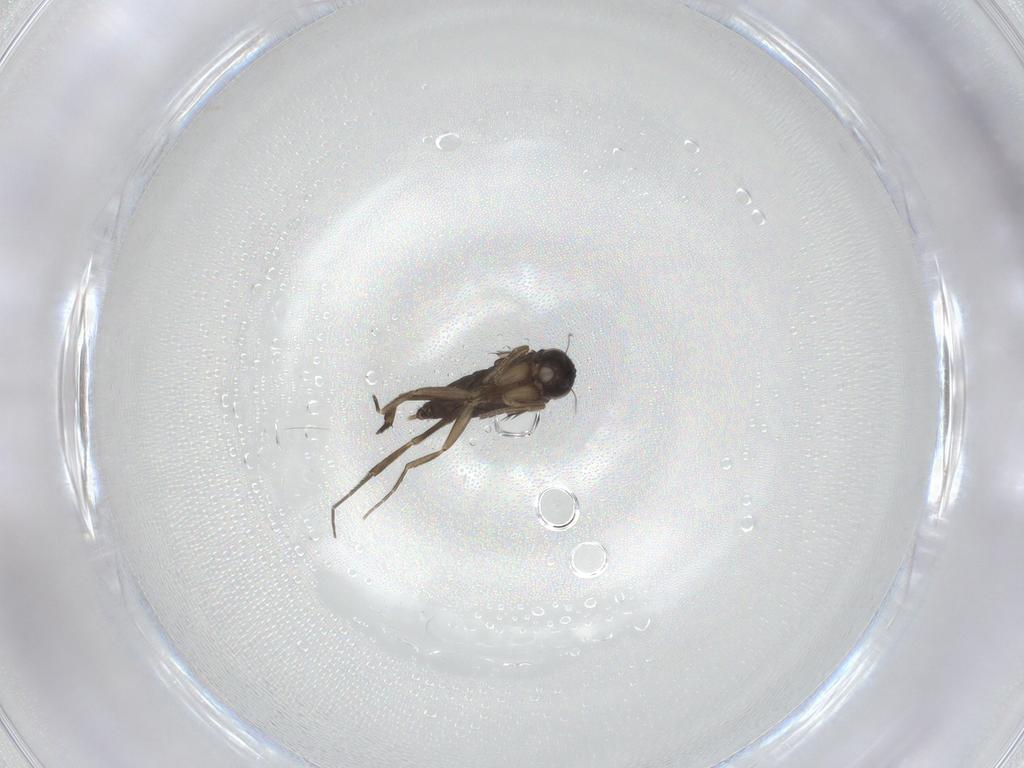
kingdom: Animalia
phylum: Arthropoda
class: Insecta
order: Diptera
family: Phoridae
